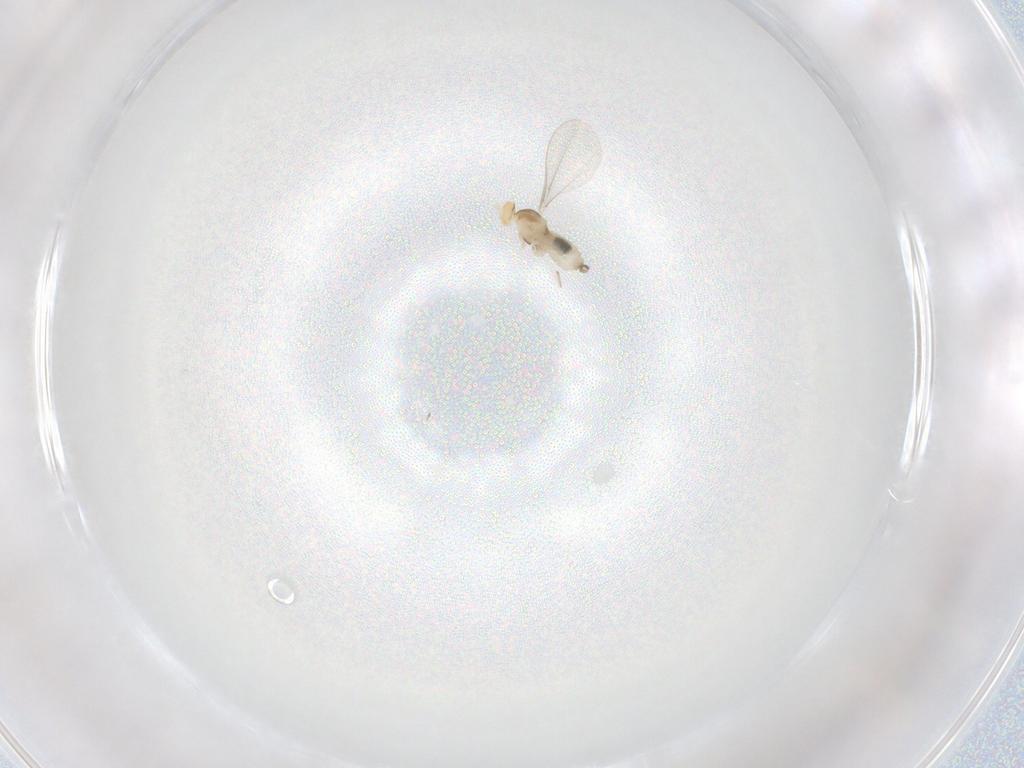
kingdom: Animalia
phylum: Arthropoda
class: Insecta
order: Diptera
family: Cecidomyiidae
